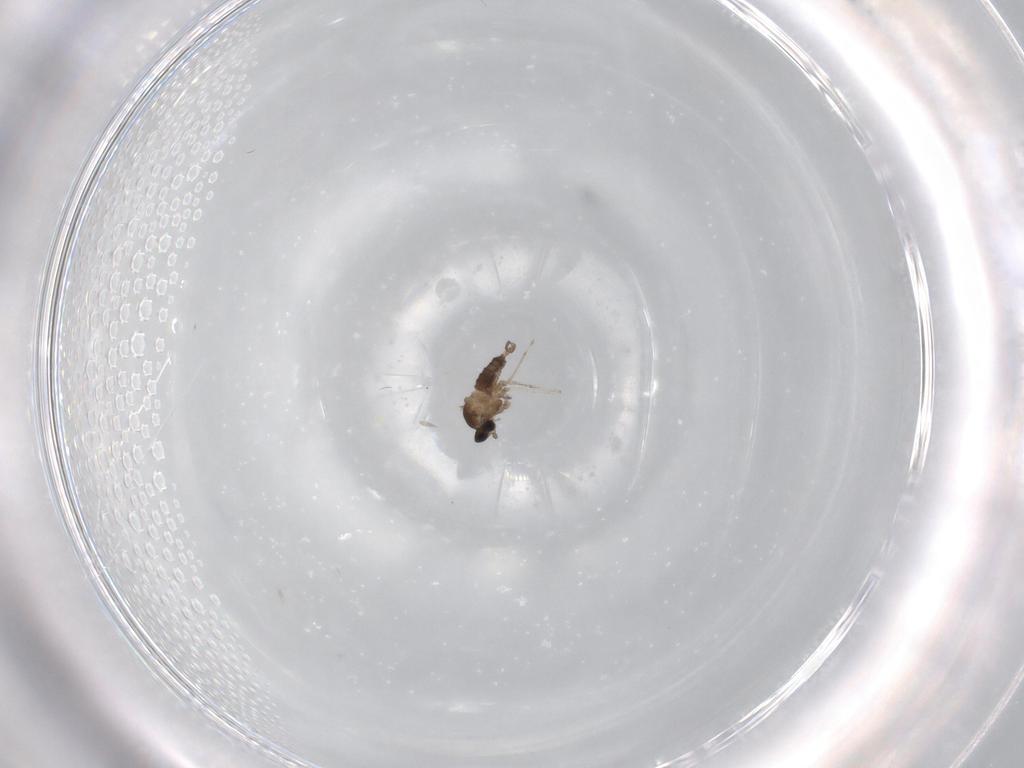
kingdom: Animalia
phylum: Arthropoda
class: Insecta
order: Diptera
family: Cecidomyiidae
